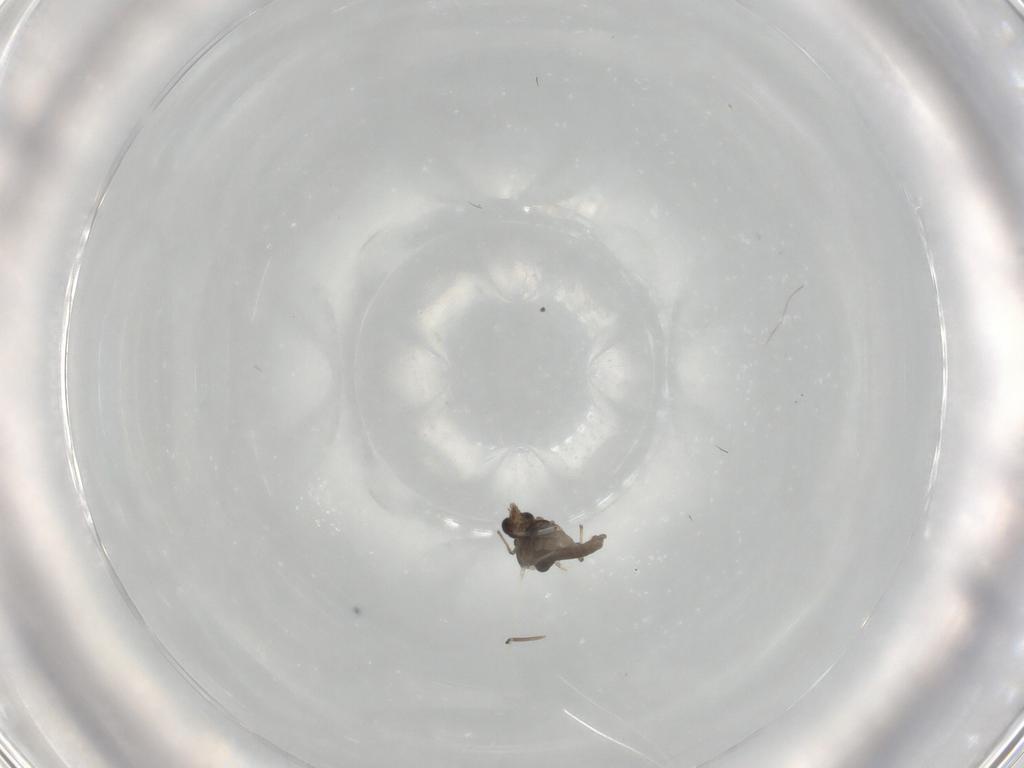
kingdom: Animalia
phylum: Arthropoda
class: Insecta
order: Diptera
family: Chironomidae
